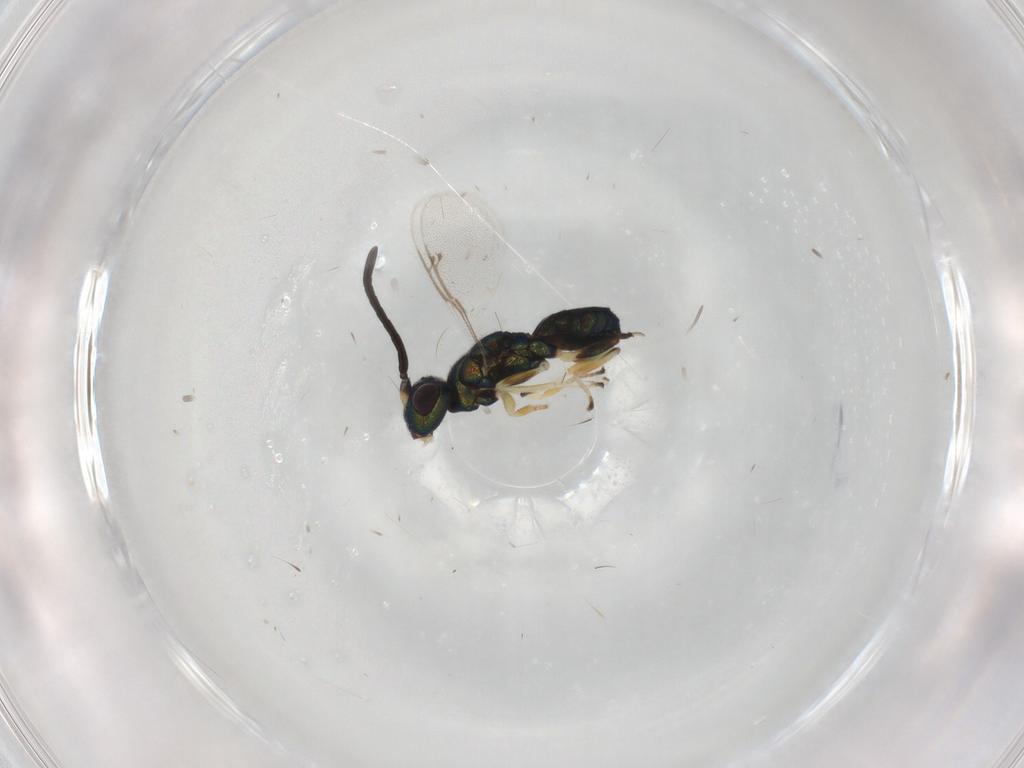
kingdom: Animalia
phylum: Arthropoda
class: Insecta
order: Hymenoptera
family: Eupelmidae
